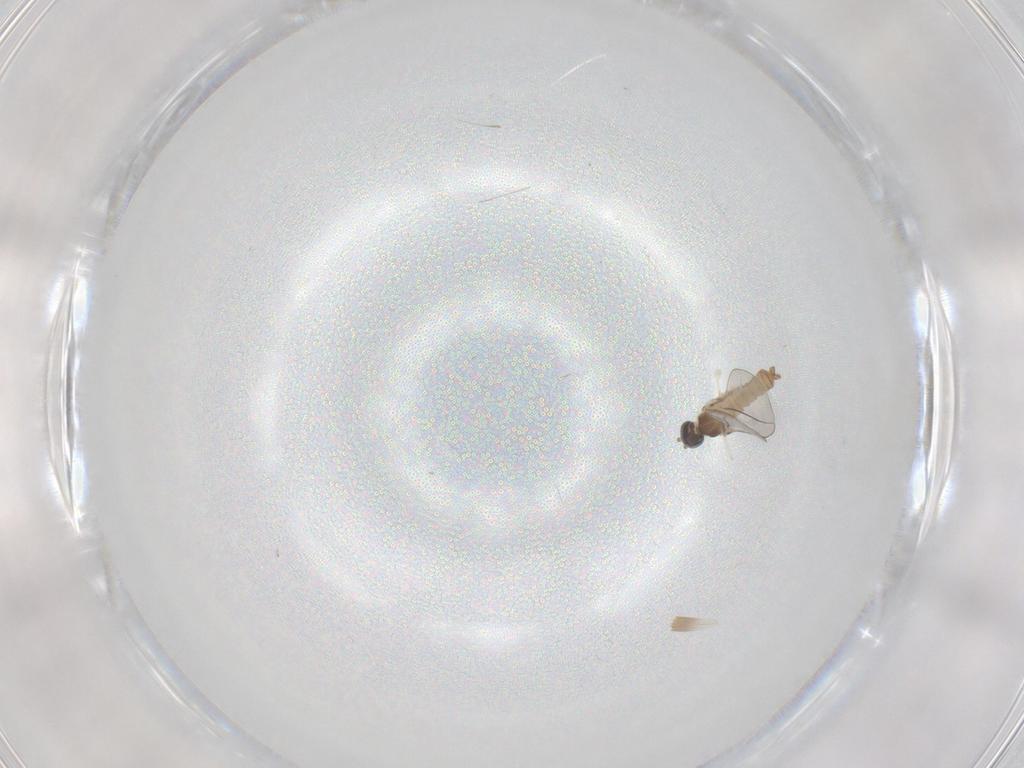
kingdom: Animalia
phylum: Arthropoda
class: Insecta
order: Diptera
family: Cecidomyiidae
